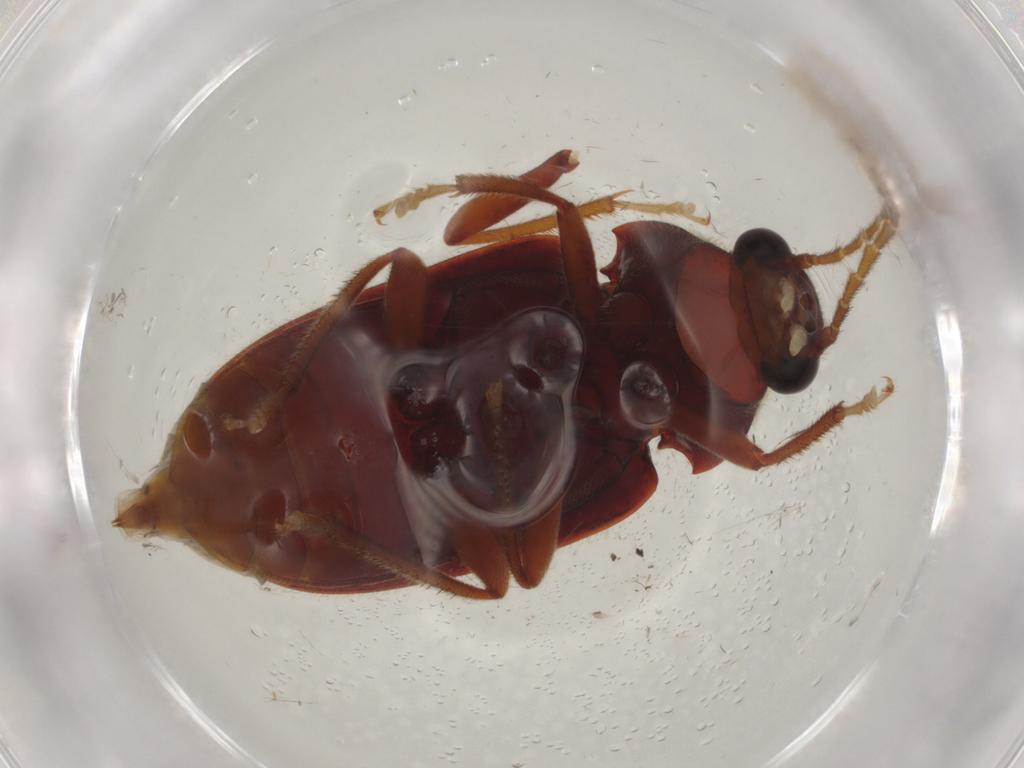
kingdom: Animalia
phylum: Arthropoda
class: Insecta
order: Coleoptera
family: Ptilodactylidae
